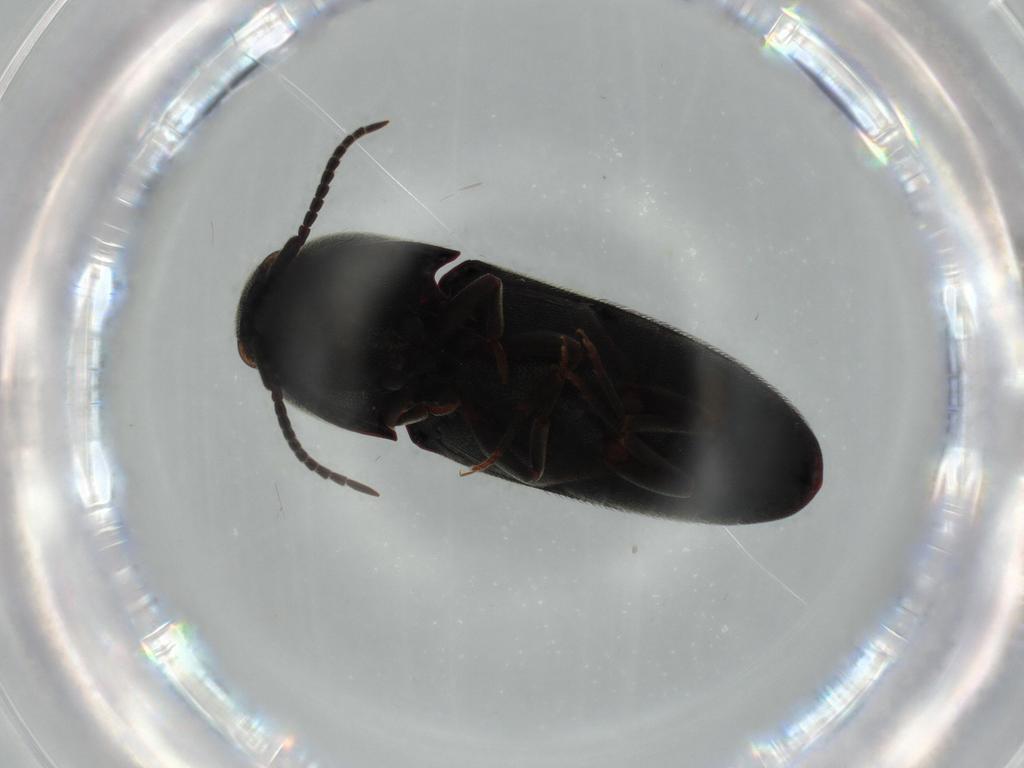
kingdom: Animalia
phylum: Arthropoda
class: Insecta
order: Coleoptera
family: Eucnemidae
